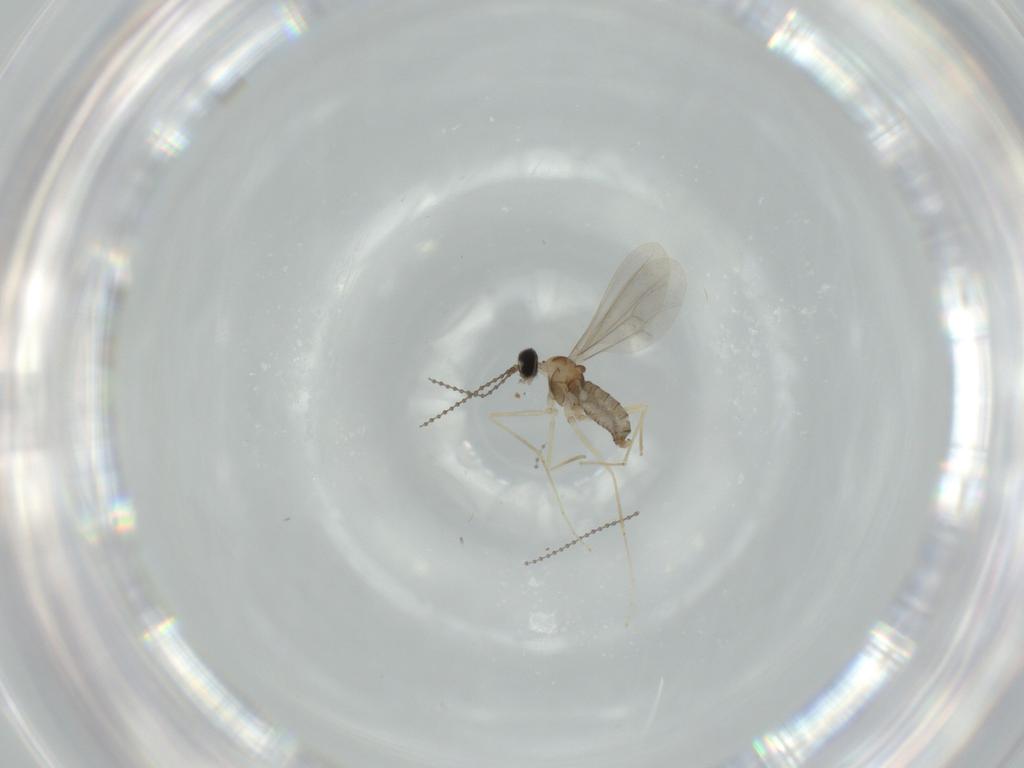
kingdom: Animalia
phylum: Arthropoda
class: Insecta
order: Diptera
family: Cecidomyiidae
